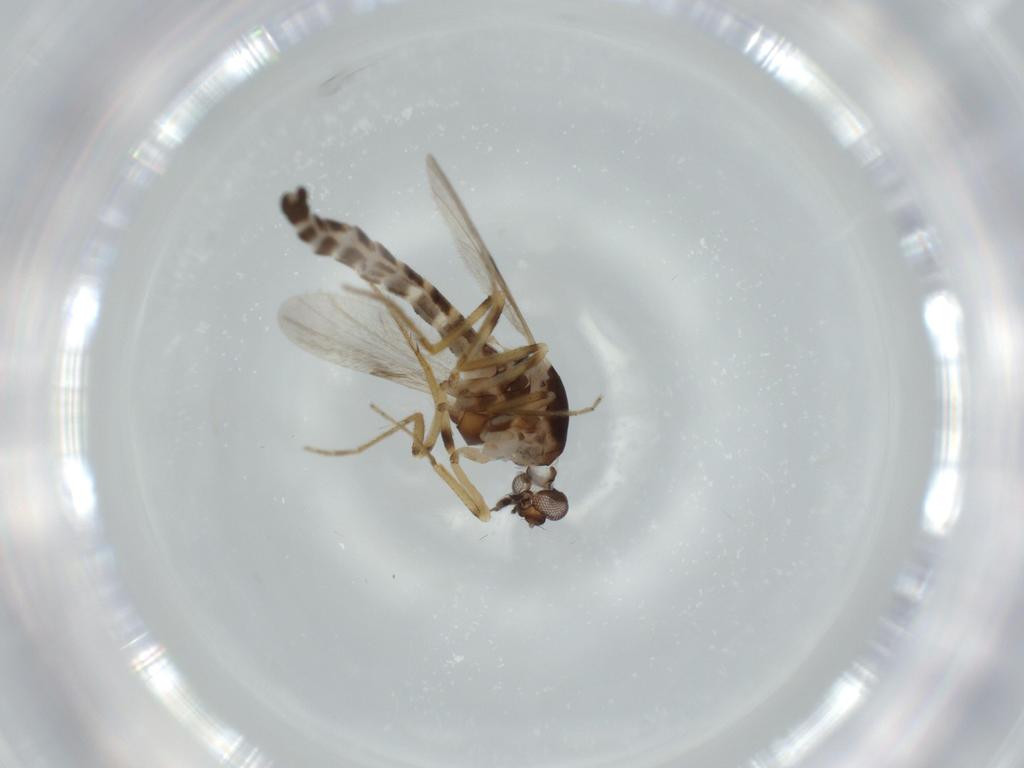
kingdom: Animalia
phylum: Arthropoda
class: Insecta
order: Diptera
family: Ceratopogonidae
